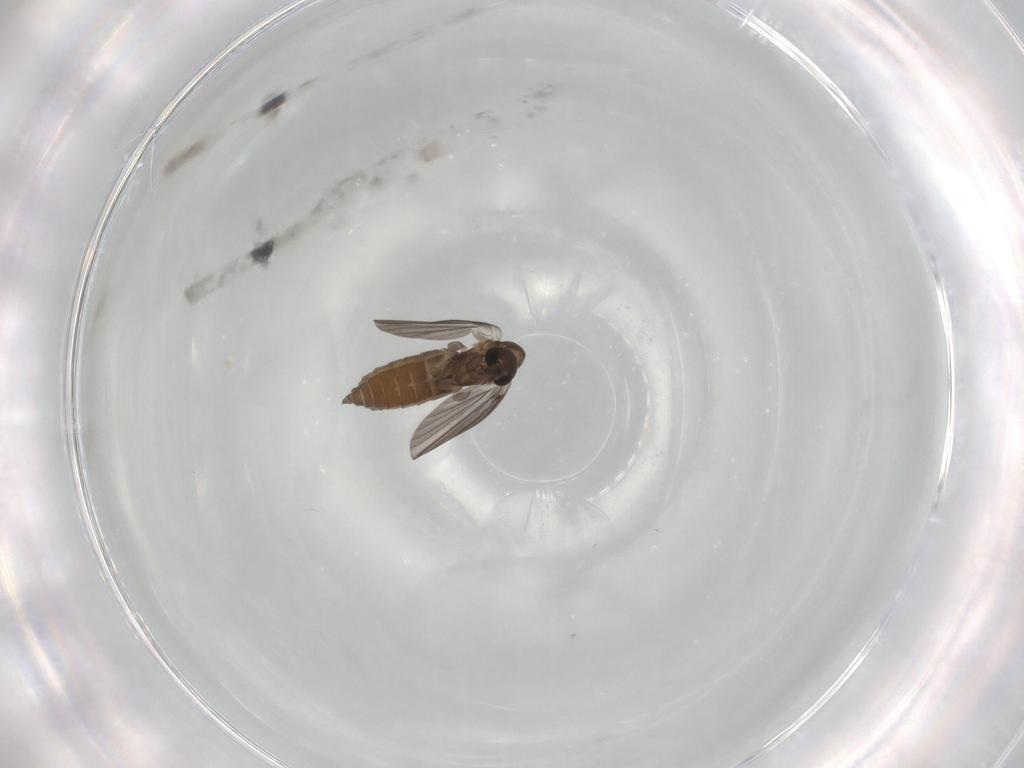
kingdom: Animalia
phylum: Arthropoda
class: Insecta
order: Diptera
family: Psychodidae
